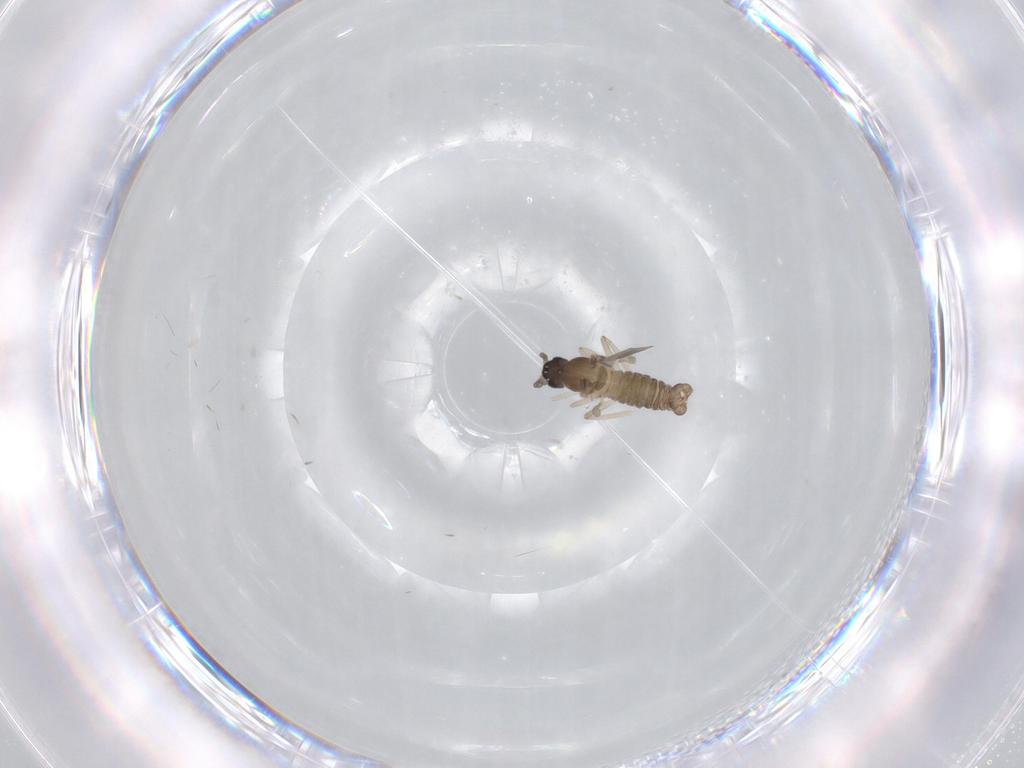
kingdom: Animalia
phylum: Arthropoda
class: Insecta
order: Diptera
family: Cecidomyiidae
